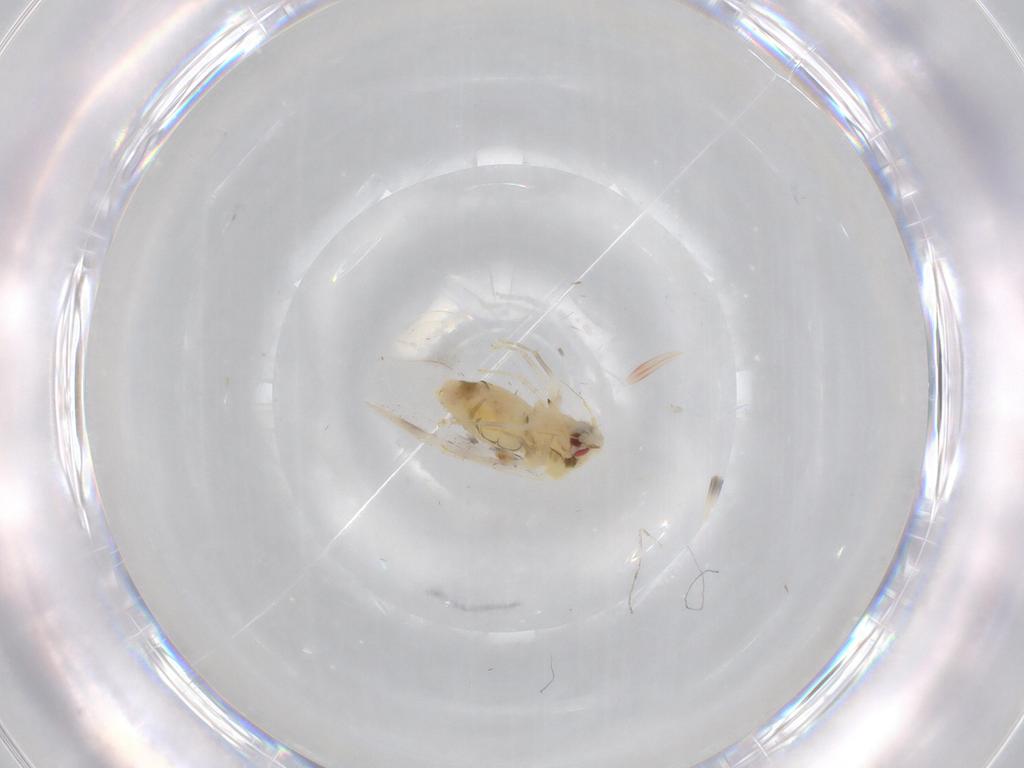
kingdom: Animalia
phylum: Arthropoda
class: Insecta
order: Hemiptera
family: Aleyrodidae
